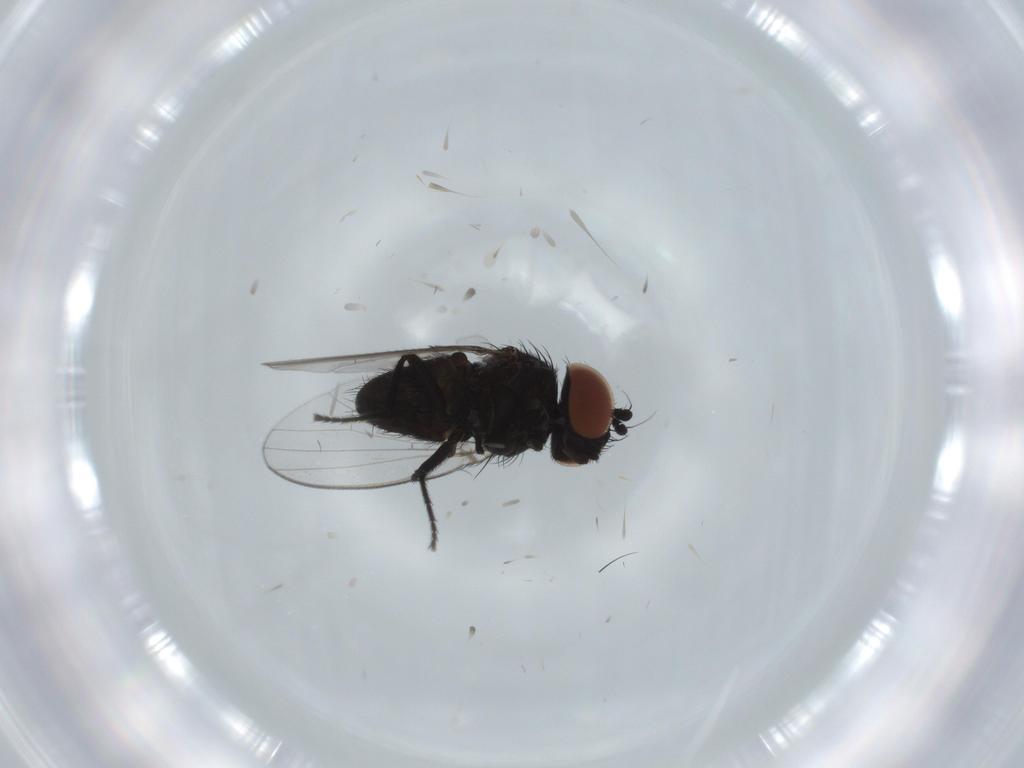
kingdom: Animalia
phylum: Arthropoda
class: Insecta
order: Diptera
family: Milichiidae
